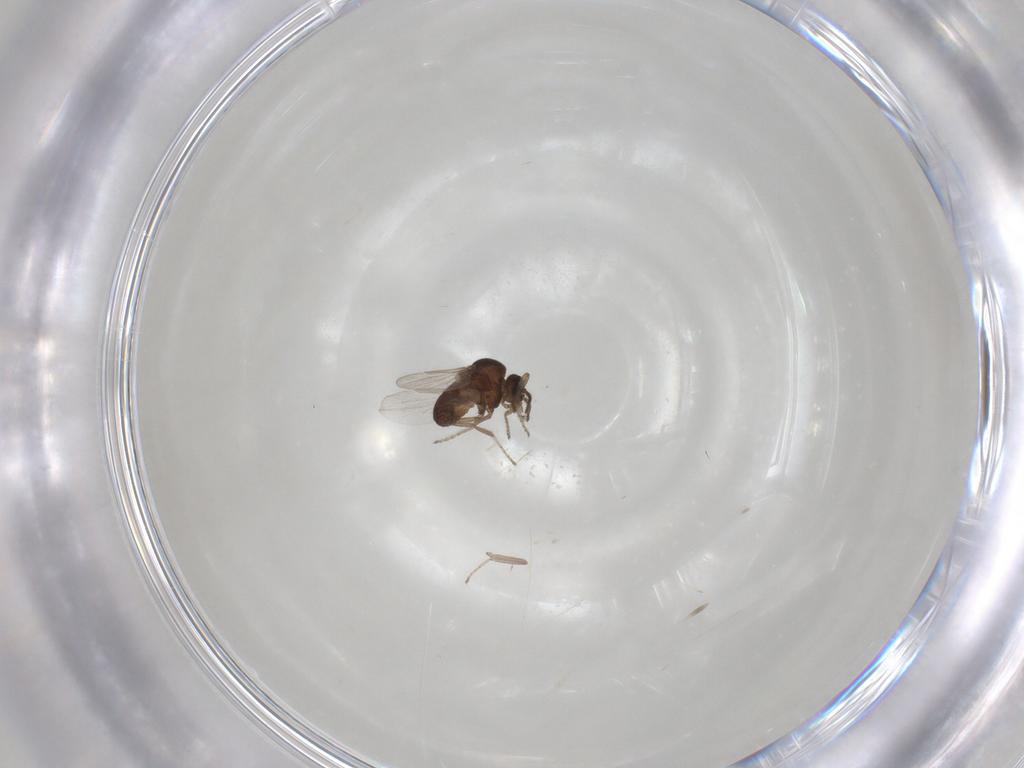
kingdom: Animalia
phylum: Arthropoda
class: Insecta
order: Diptera
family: Ceratopogonidae
